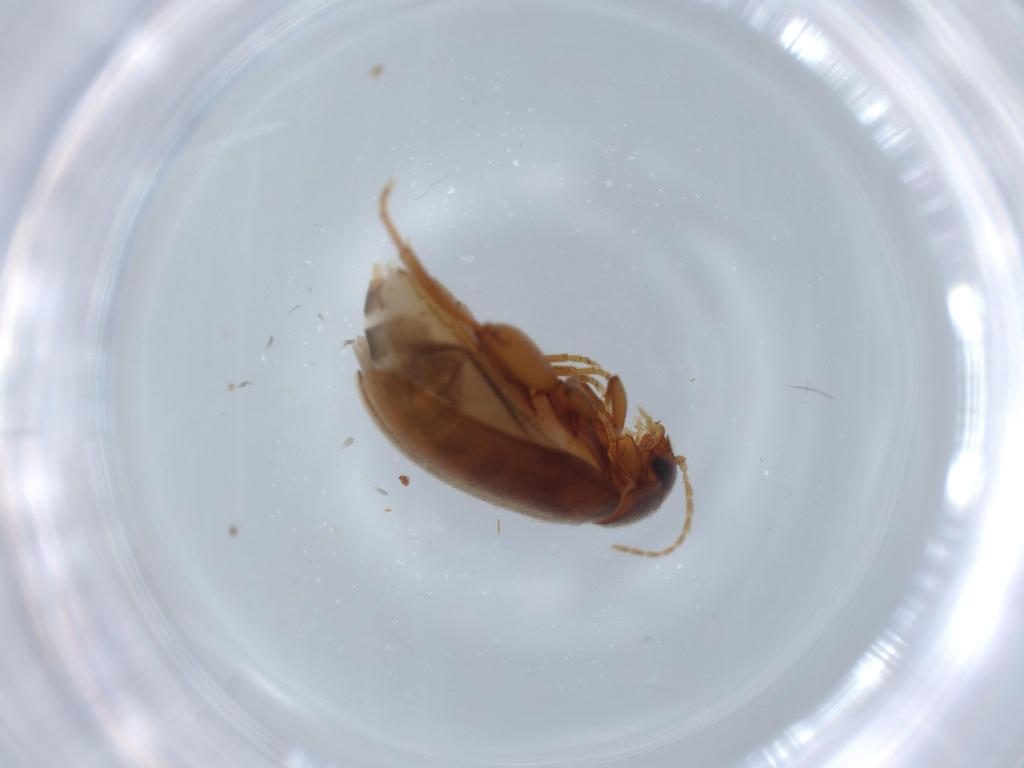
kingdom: Animalia
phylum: Arthropoda
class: Insecta
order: Coleoptera
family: Scirtidae
